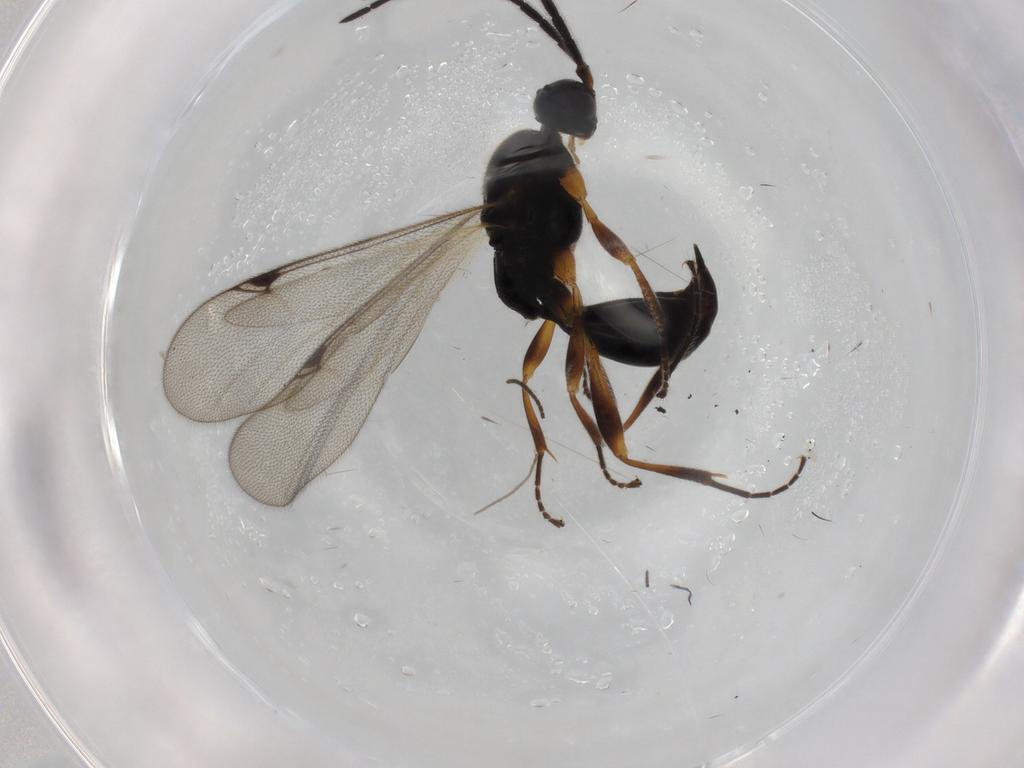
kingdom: Animalia
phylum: Arthropoda
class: Insecta
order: Hymenoptera
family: Proctotrupidae
